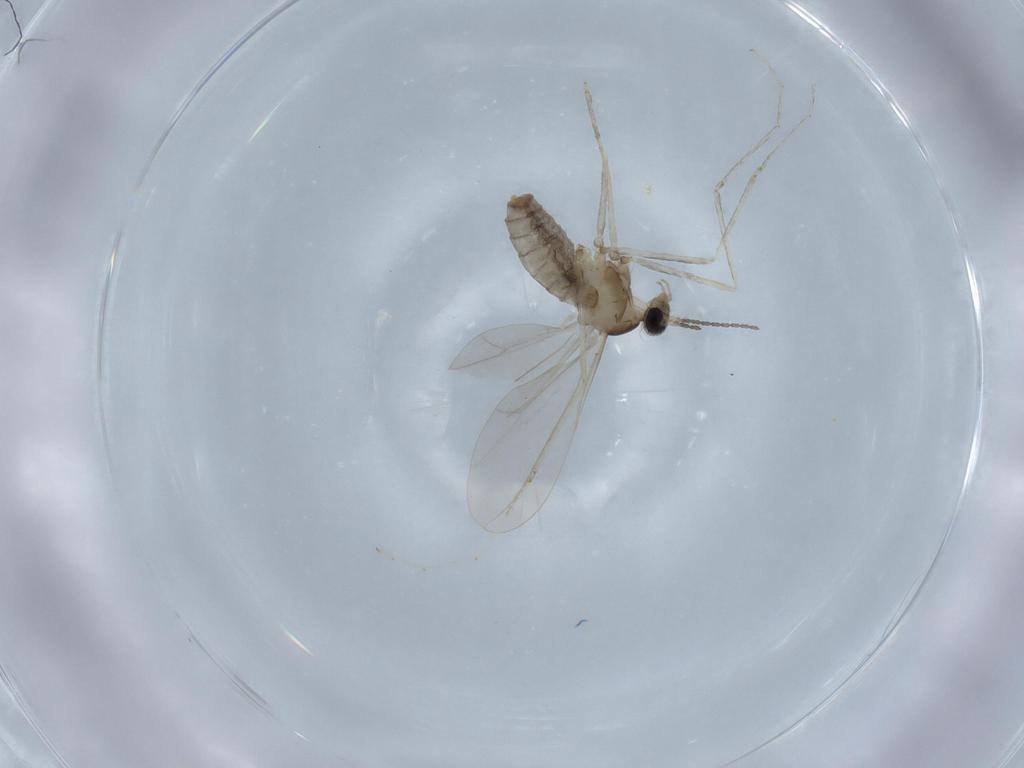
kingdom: Animalia
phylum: Arthropoda
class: Insecta
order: Diptera
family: Cecidomyiidae
